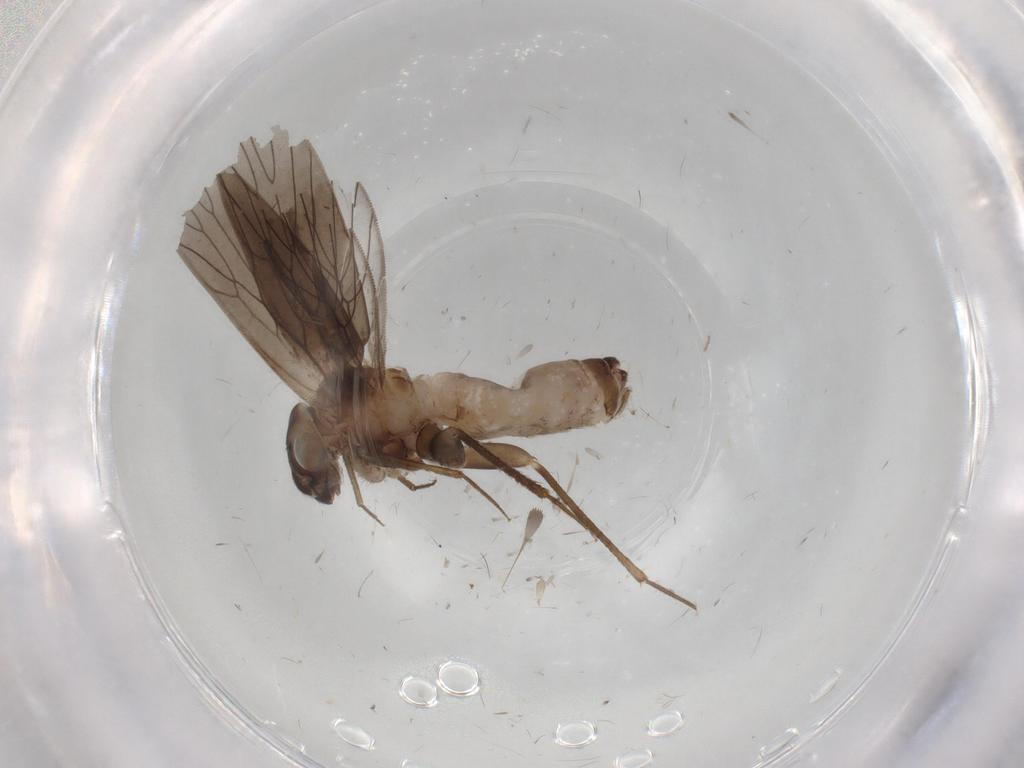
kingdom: Animalia
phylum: Arthropoda
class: Insecta
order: Psocodea
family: Lepidopsocidae
